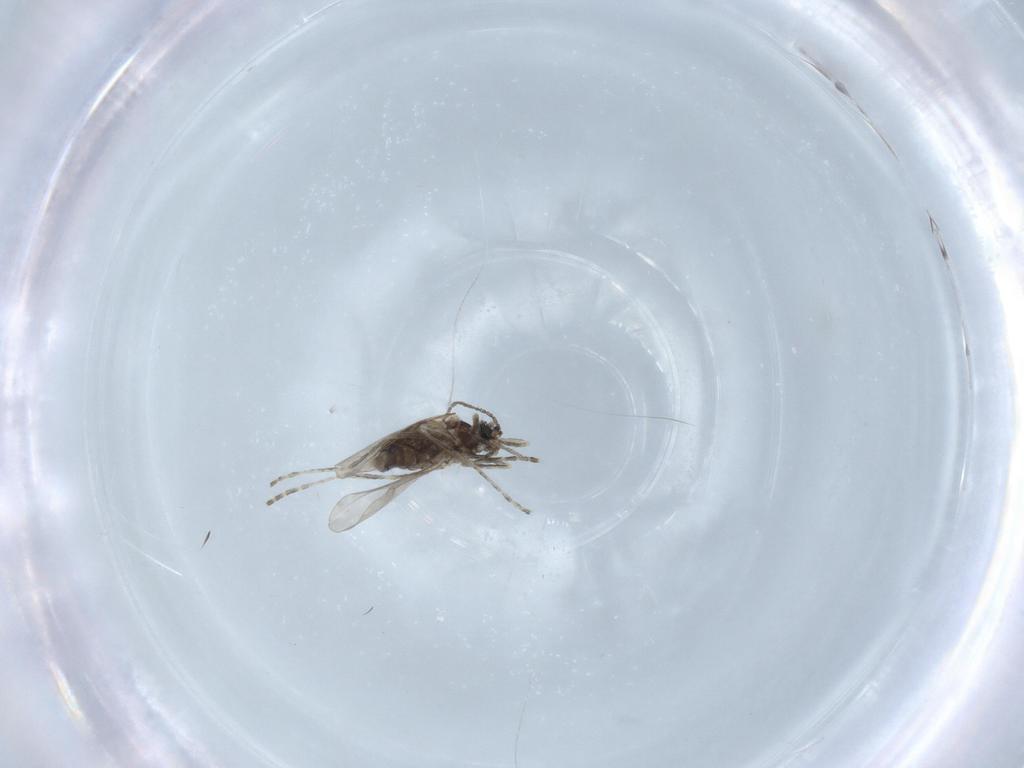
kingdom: Animalia
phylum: Arthropoda
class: Insecta
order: Diptera
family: Cecidomyiidae
